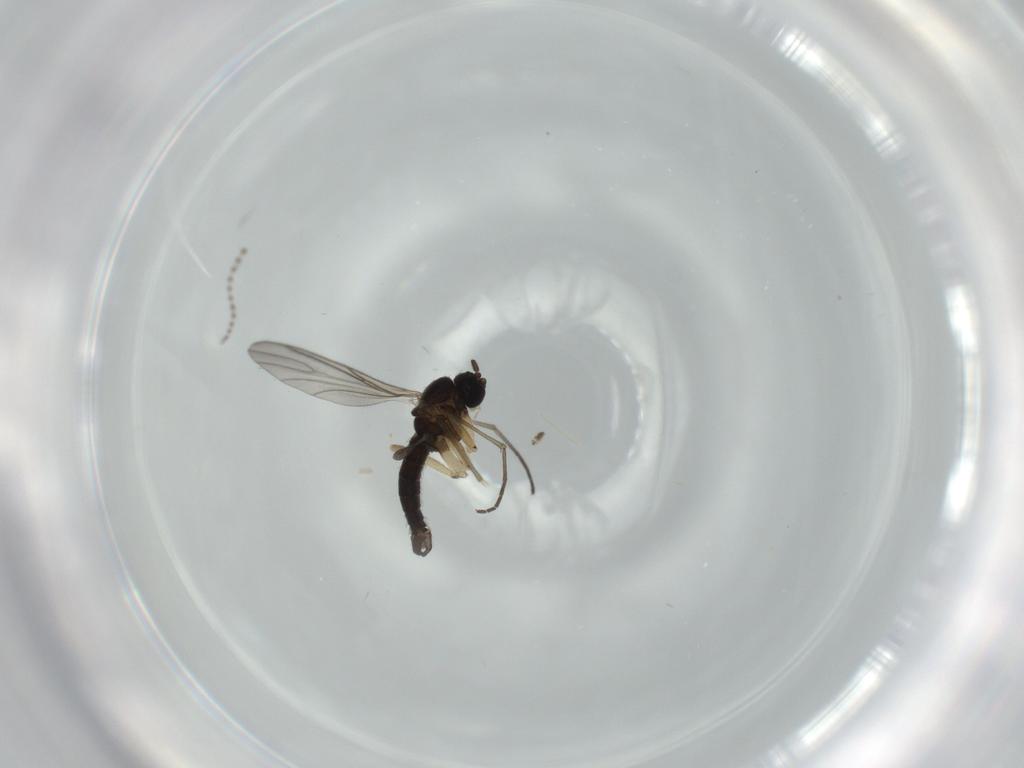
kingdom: Animalia
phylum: Arthropoda
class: Insecta
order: Diptera
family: Sciaridae
